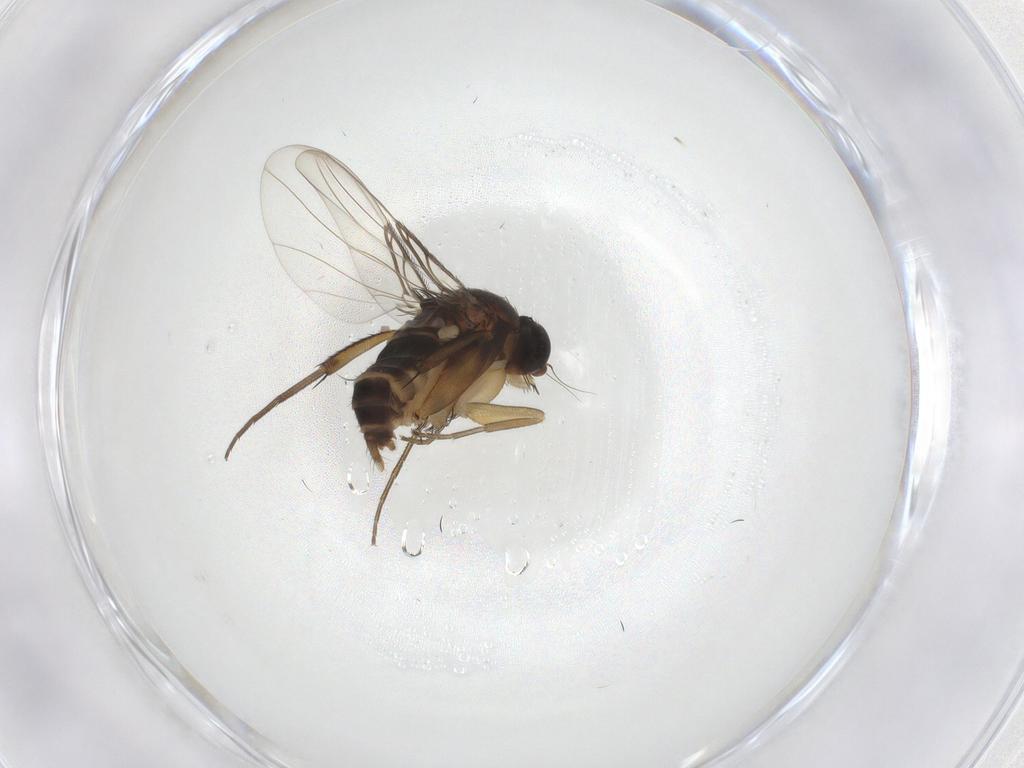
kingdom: Animalia
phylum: Arthropoda
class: Insecta
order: Diptera
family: Phoridae
